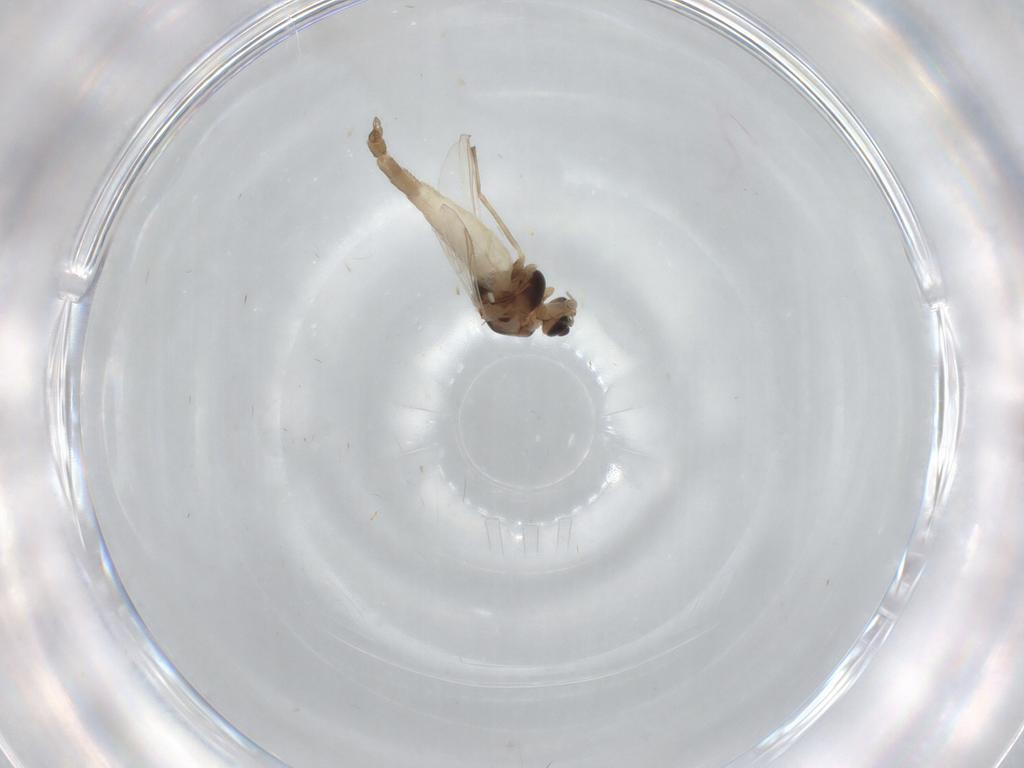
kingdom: Animalia
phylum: Arthropoda
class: Insecta
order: Diptera
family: Chironomidae
